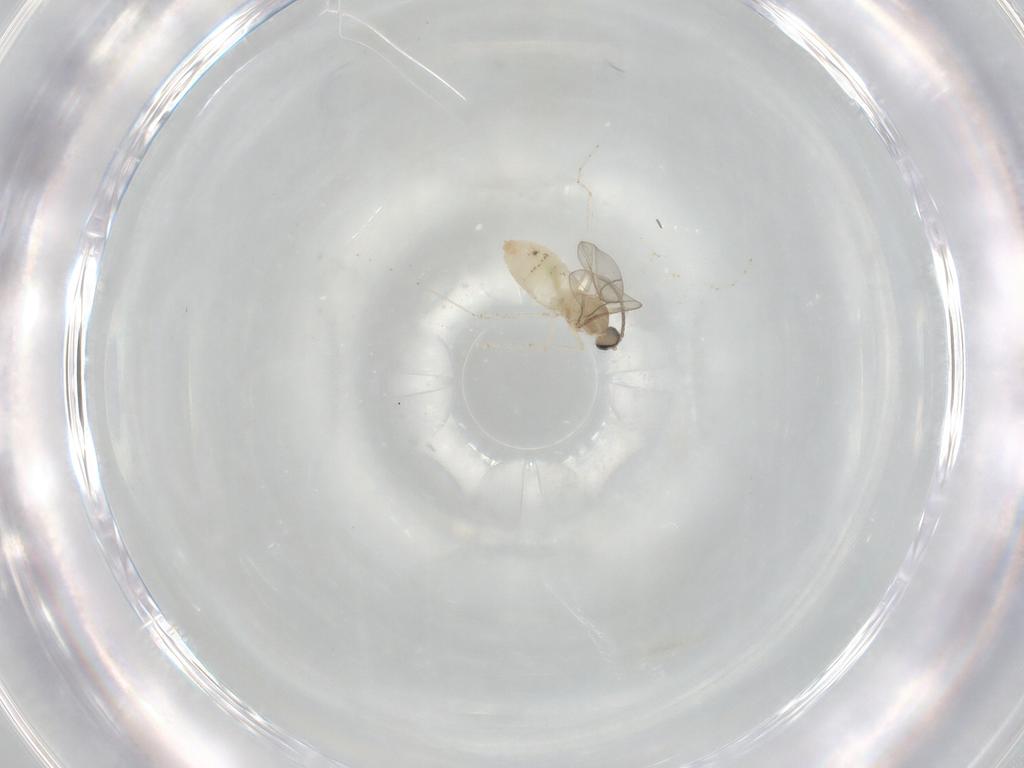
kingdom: Animalia
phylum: Arthropoda
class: Insecta
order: Diptera
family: Cecidomyiidae
